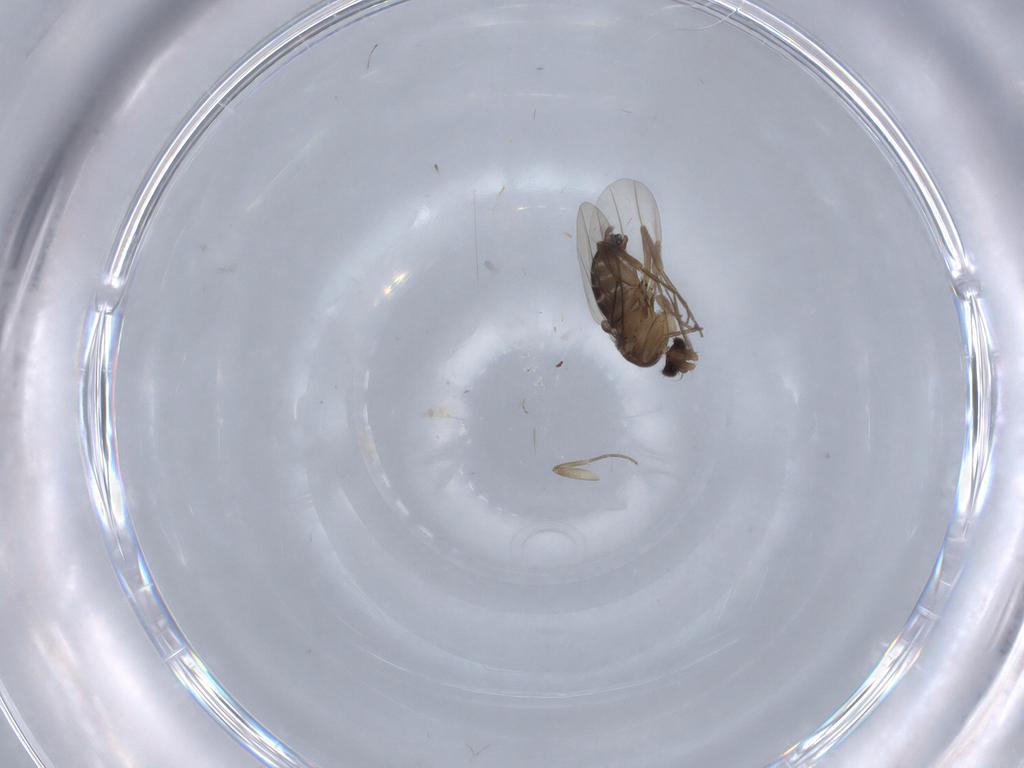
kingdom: Animalia
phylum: Arthropoda
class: Insecta
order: Diptera
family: Phoridae
